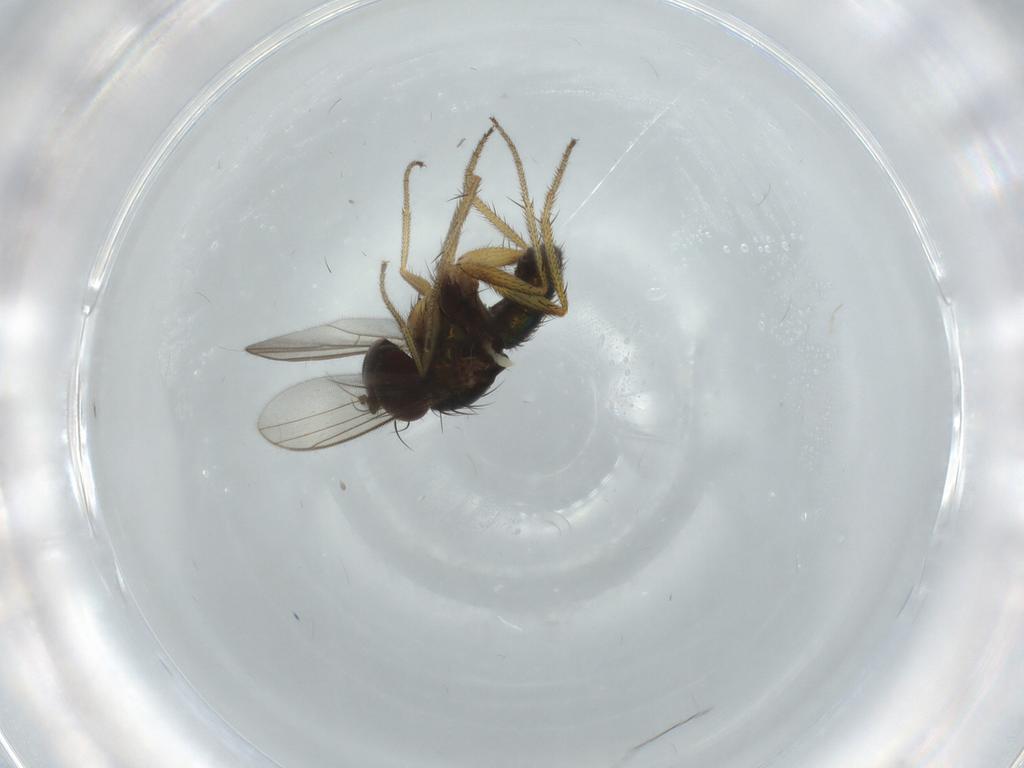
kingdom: Animalia
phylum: Arthropoda
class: Insecta
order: Diptera
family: Dolichopodidae
